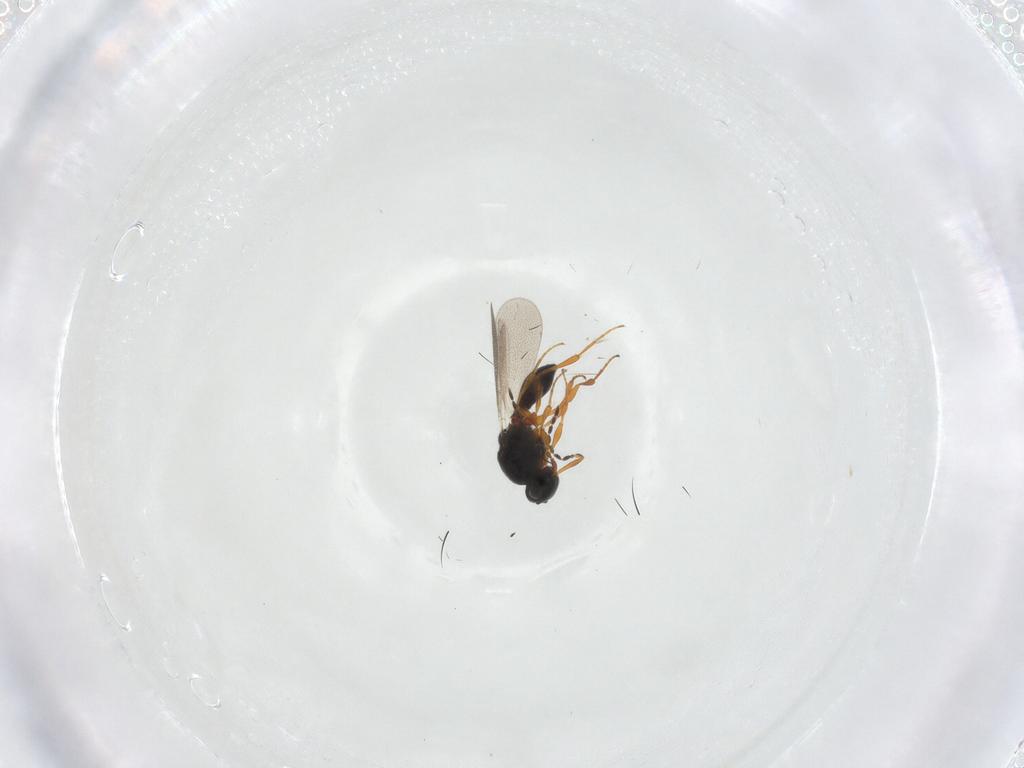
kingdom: Animalia
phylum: Arthropoda
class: Insecta
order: Hymenoptera
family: Platygastridae
